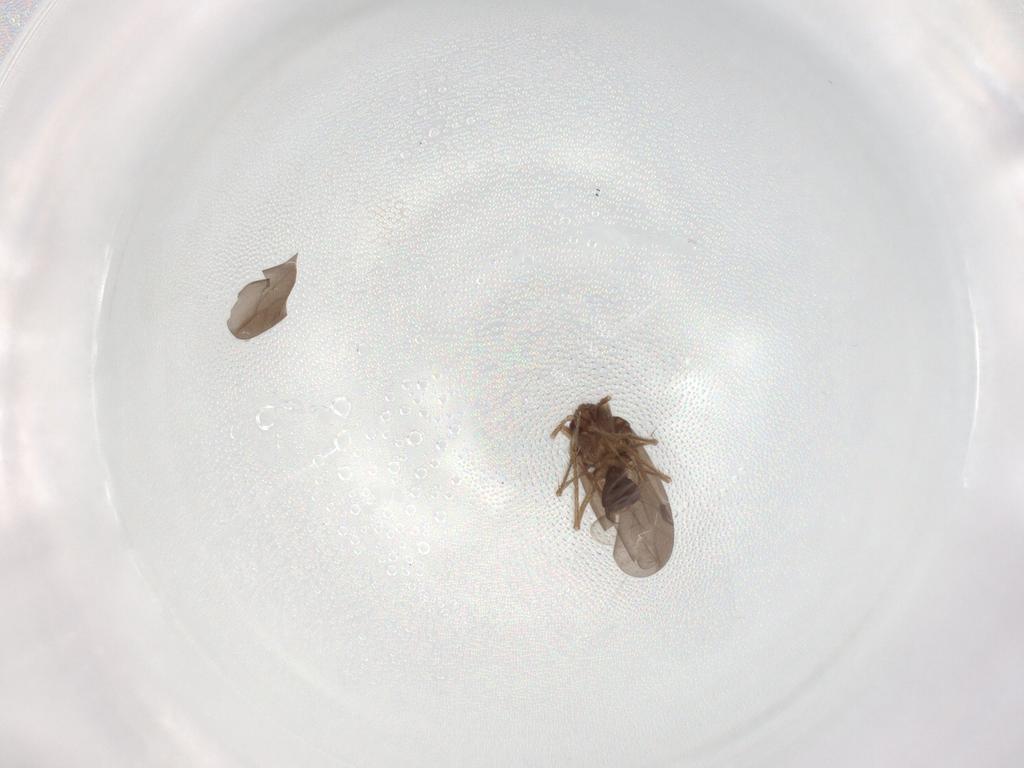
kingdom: Animalia
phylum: Arthropoda
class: Insecta
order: Hemiptera
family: Ceratocombidae
